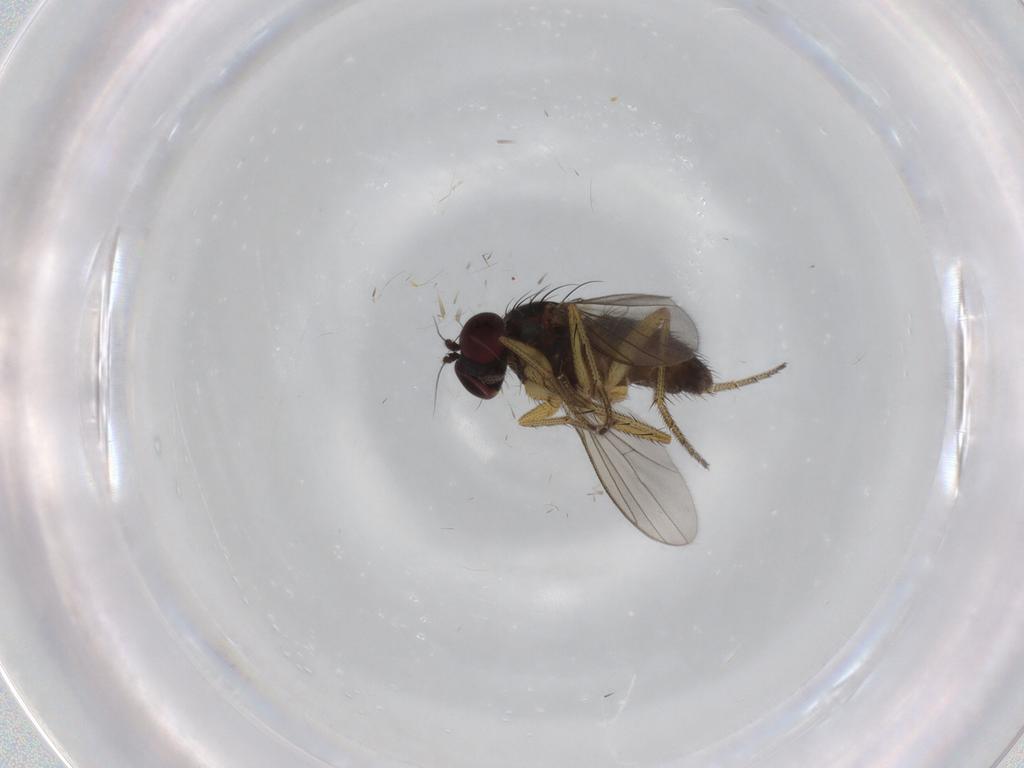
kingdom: Animalia
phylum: Arthropoda
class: Insecta
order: Diptera
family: Dolichopodidae
